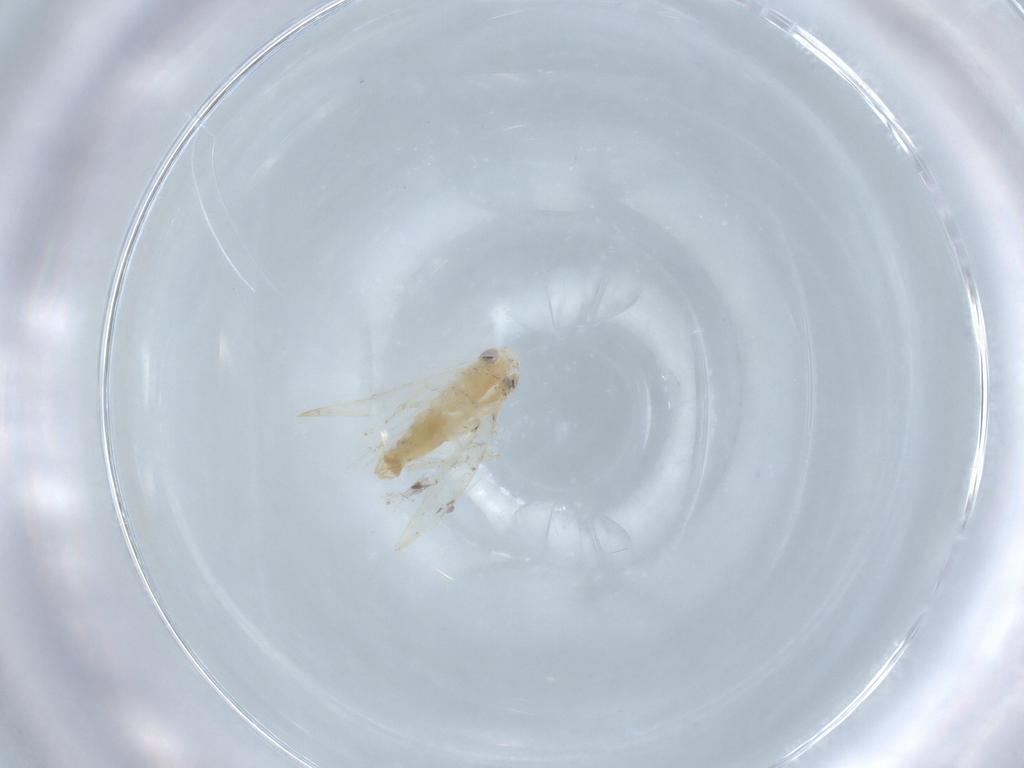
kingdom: Animalia
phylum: Arthropoda
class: Insecta
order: Hemiptera
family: Cicadellidae
